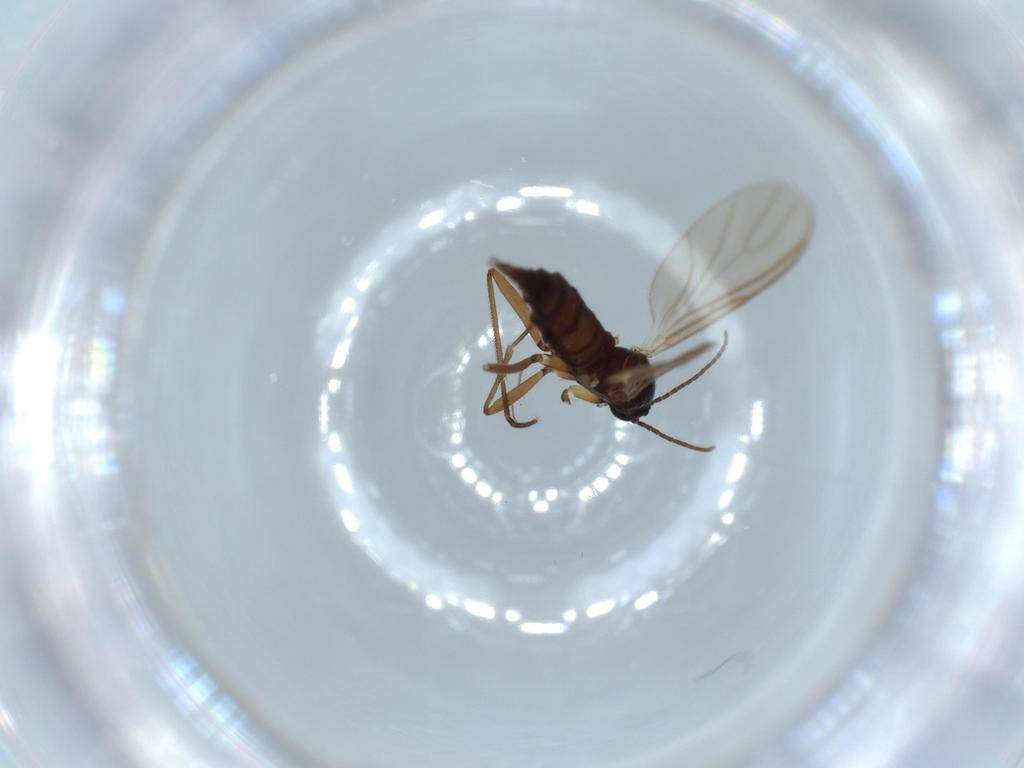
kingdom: Animalia
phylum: Arthropoda
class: Insecta
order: Diptera
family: Sciaridae
